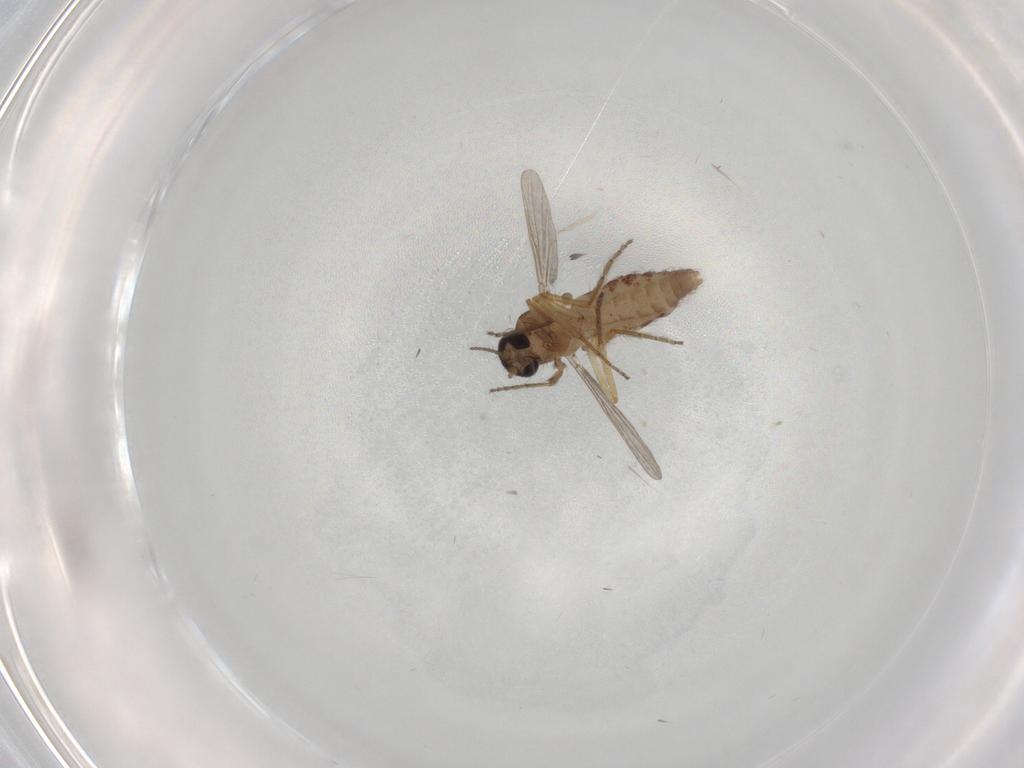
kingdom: Animalia
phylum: Arthropoda
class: Insecta
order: Diptera
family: Ceratopogonidae
